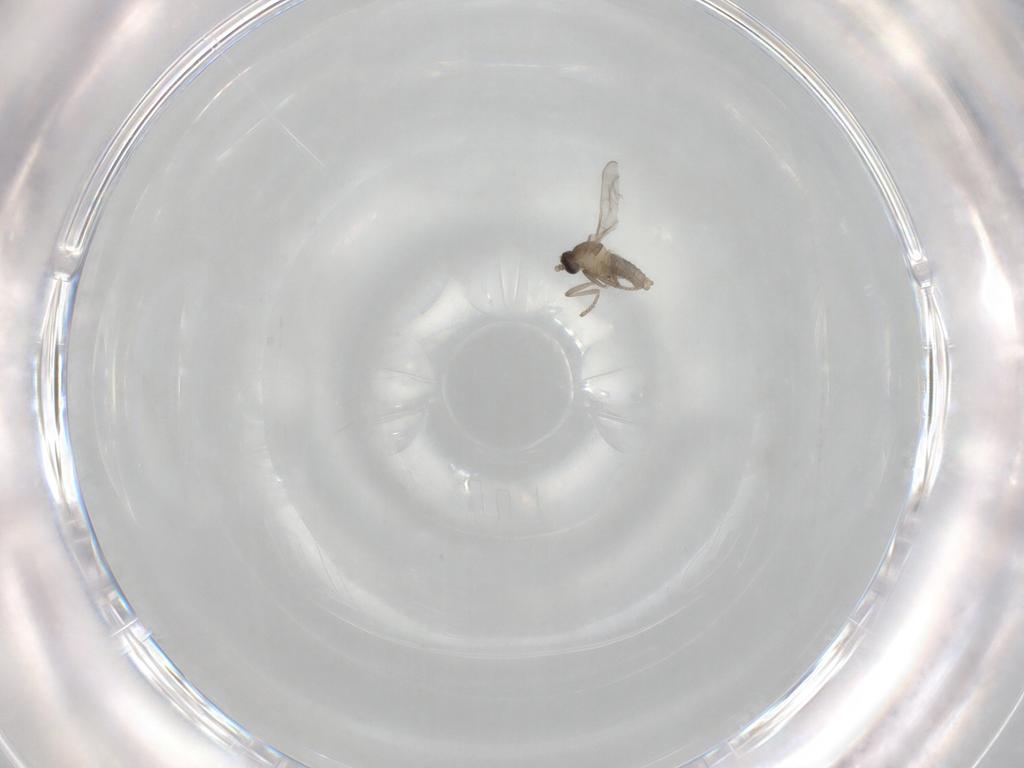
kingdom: Animalia
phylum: Arthropoda
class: Insecta
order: Diptera
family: Cecidomyiidae
